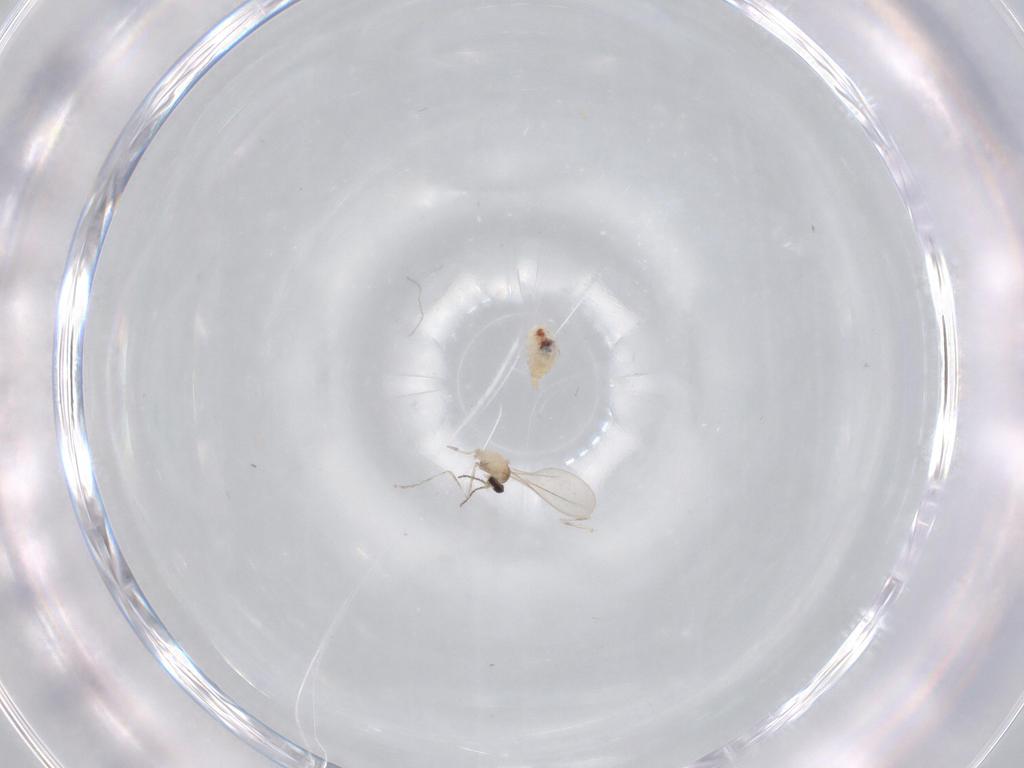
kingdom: Animalia
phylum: Arthropoda
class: Insecta
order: Diptera
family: Cecidomyiidae
